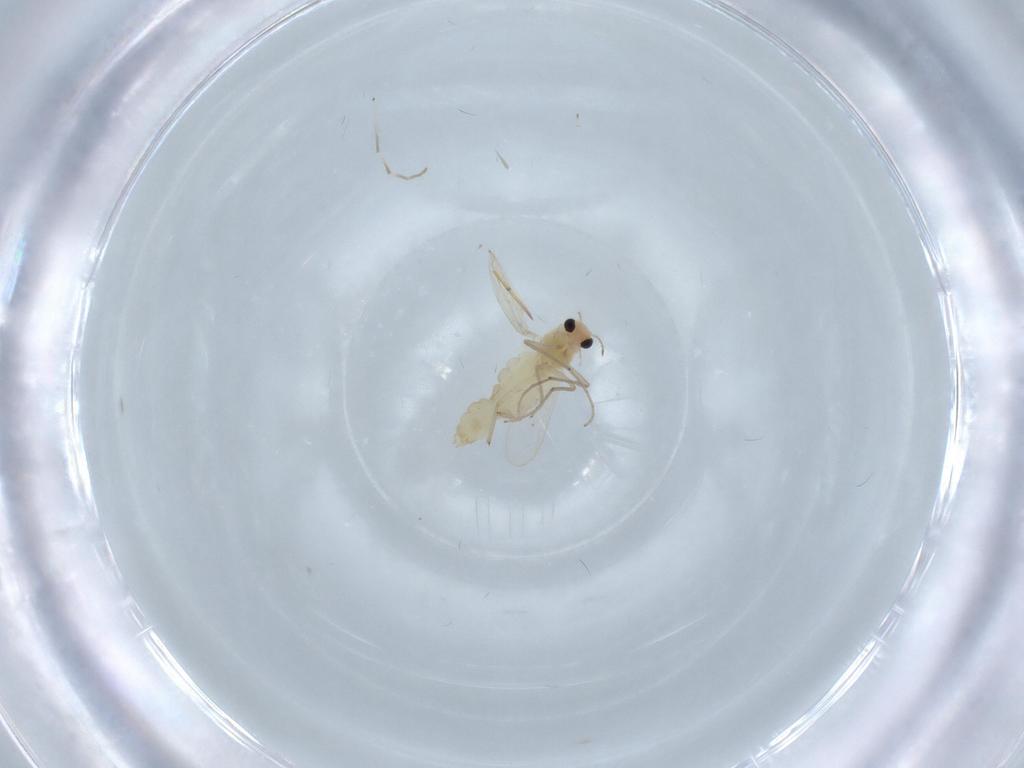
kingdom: Animalia
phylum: Arthropoda
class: Insecta
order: Diptera
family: Chironomidae
